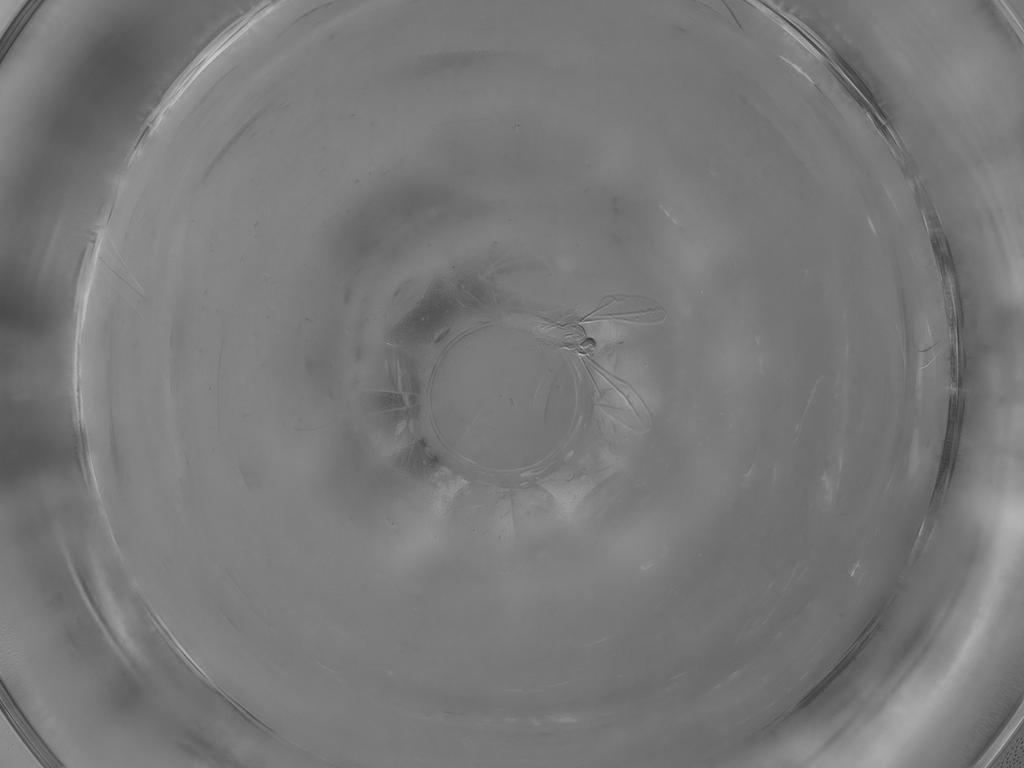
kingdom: Animalia
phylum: Arthropoda
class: Insecta
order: Diptera
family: Cecidomyiidae
